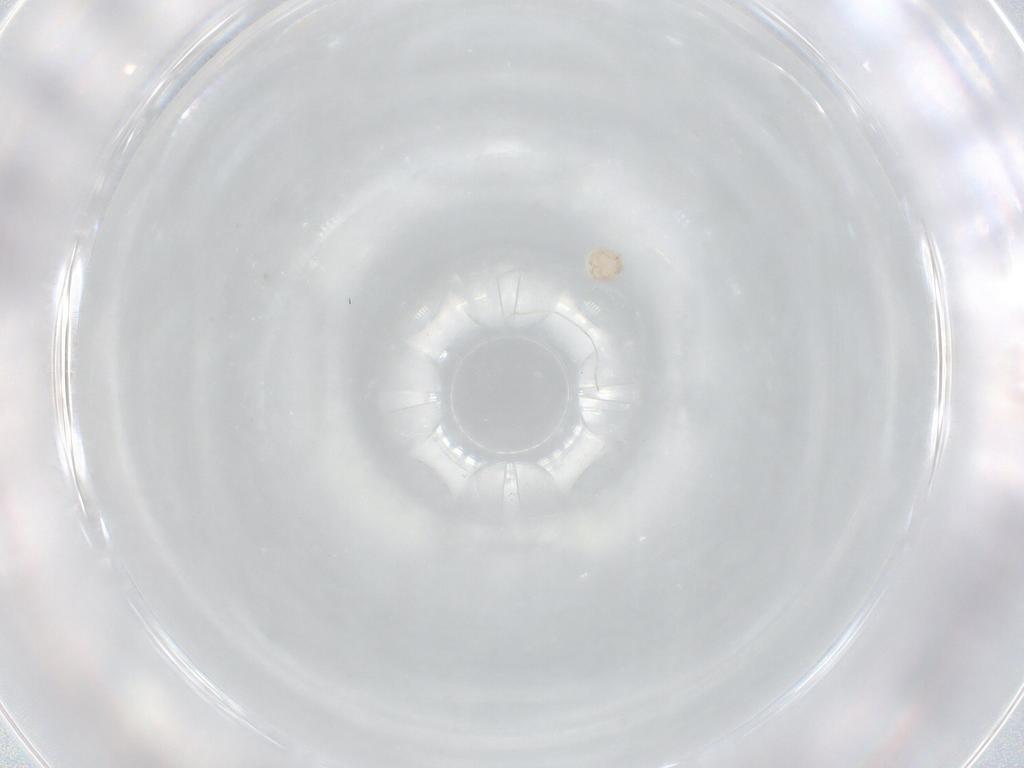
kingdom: Animalia
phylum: Arthropoda
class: Arachnida
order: Trombidiformes
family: Lebertiidae
